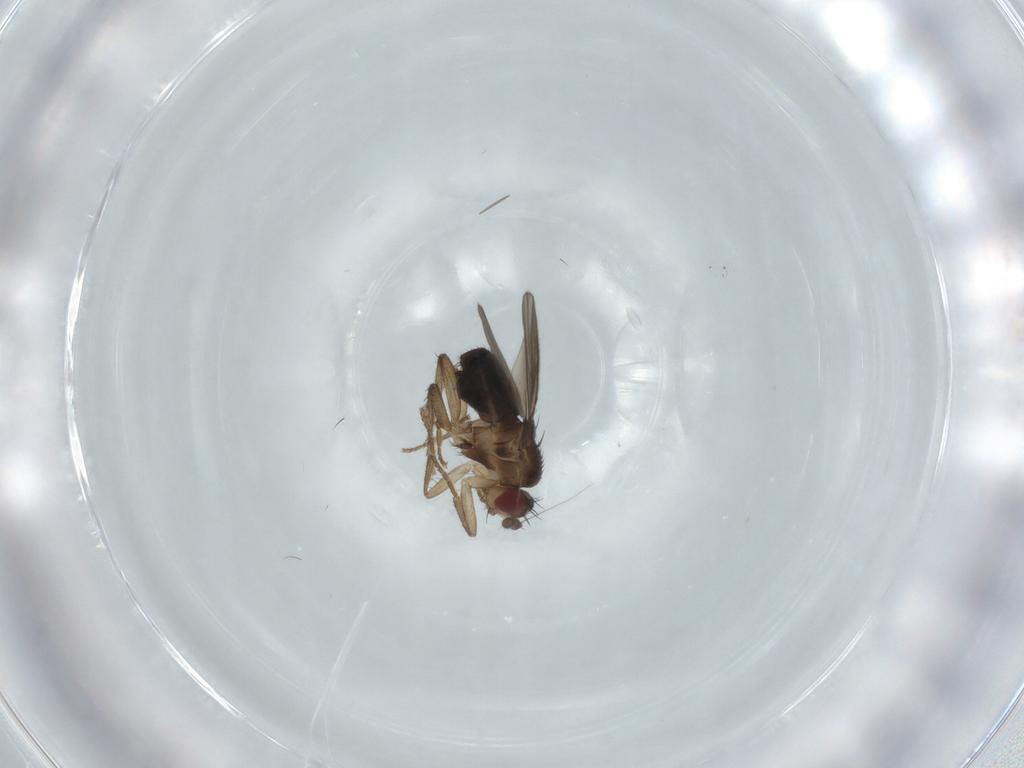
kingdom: Animalia
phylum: Arthropoda
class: Insecta
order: Diptera
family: Sphaeroceridae
